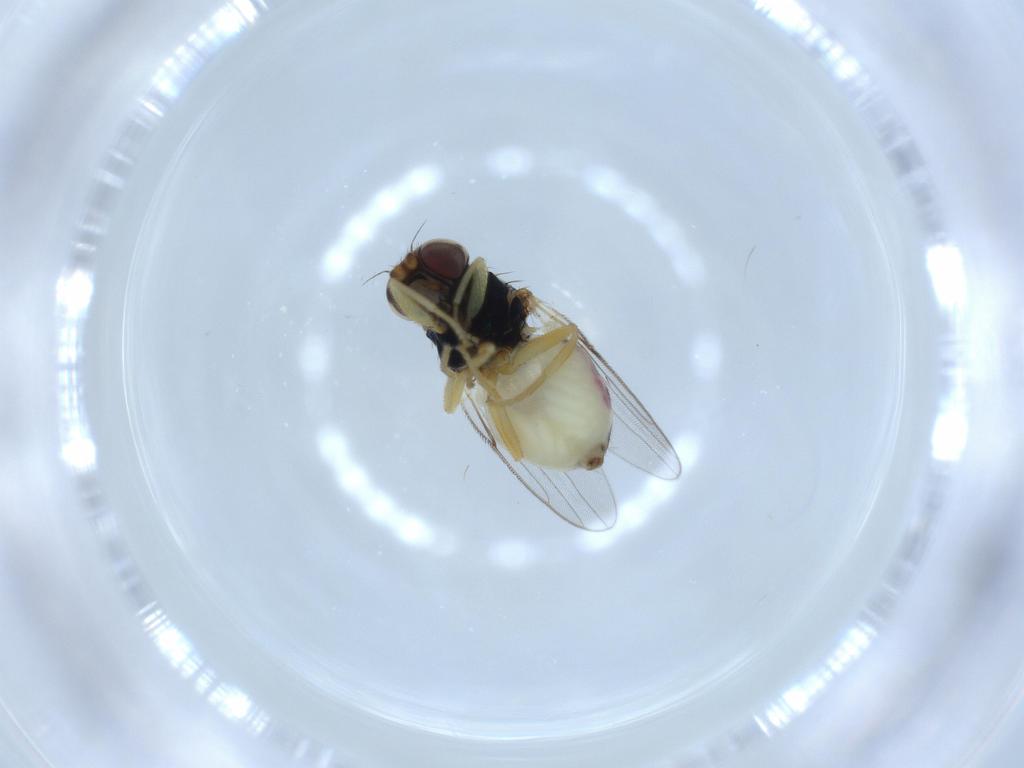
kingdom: Animalia
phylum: Arthropoda
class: Insecta
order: Diptera
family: Chloropidae
